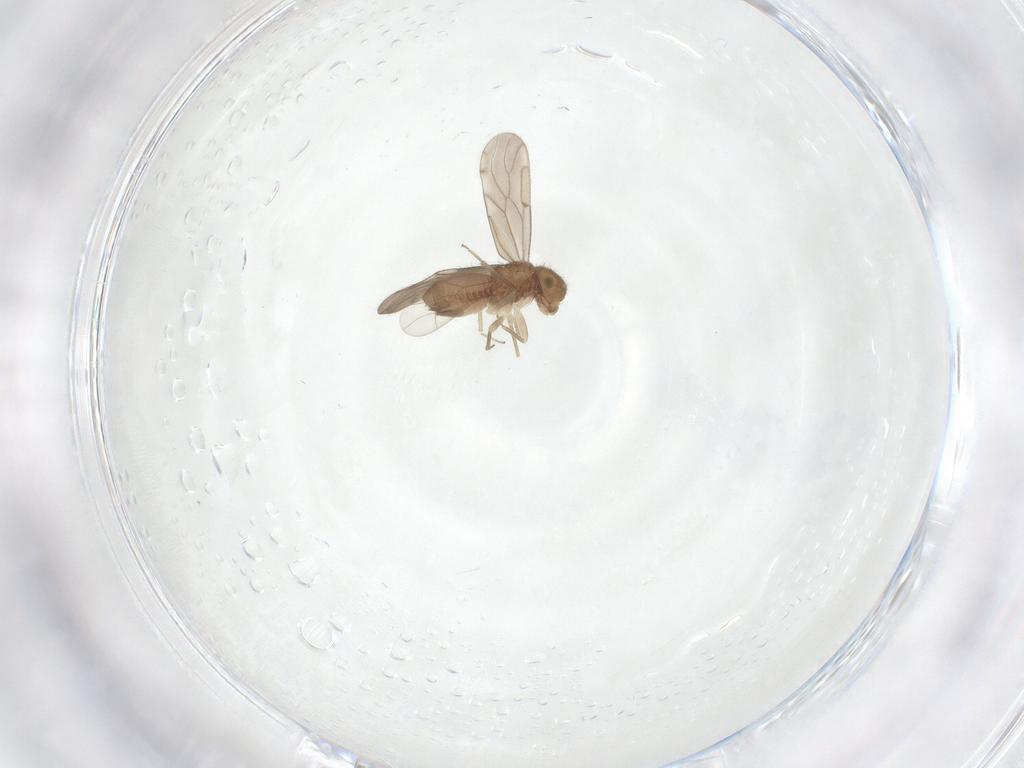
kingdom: Animalia
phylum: Arthropoda
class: Insecta
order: Psocodea
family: Ectopsocidae
